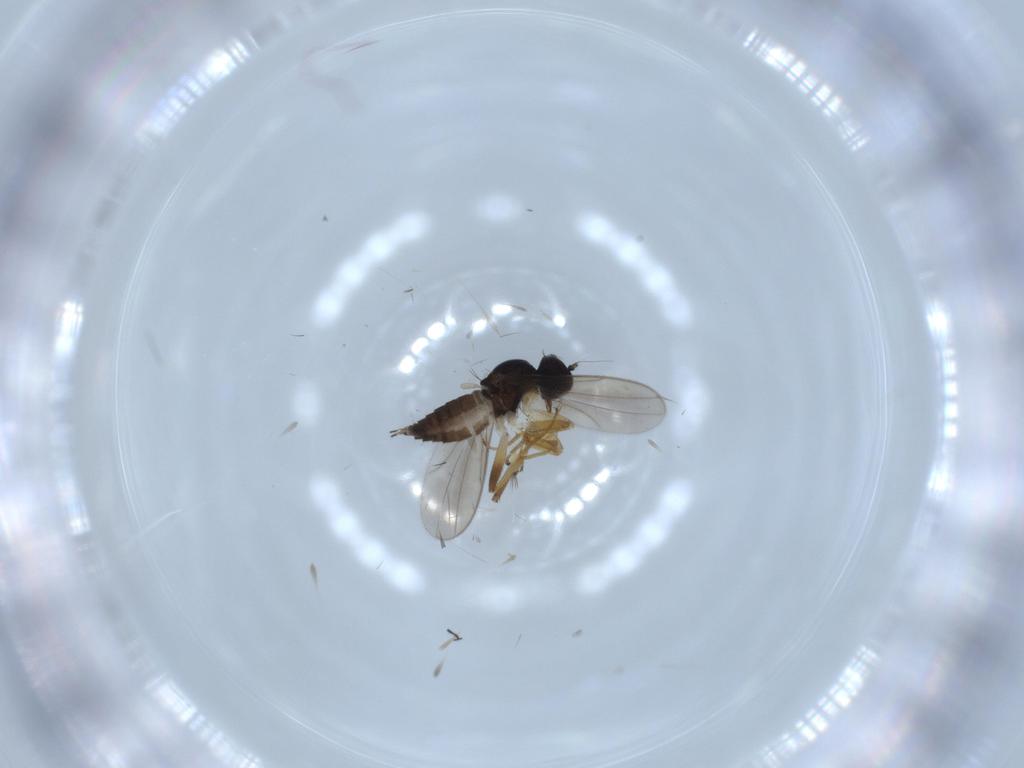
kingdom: Animalia
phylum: Arthropoda
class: Insecta
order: Diptera
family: Hybotidae
